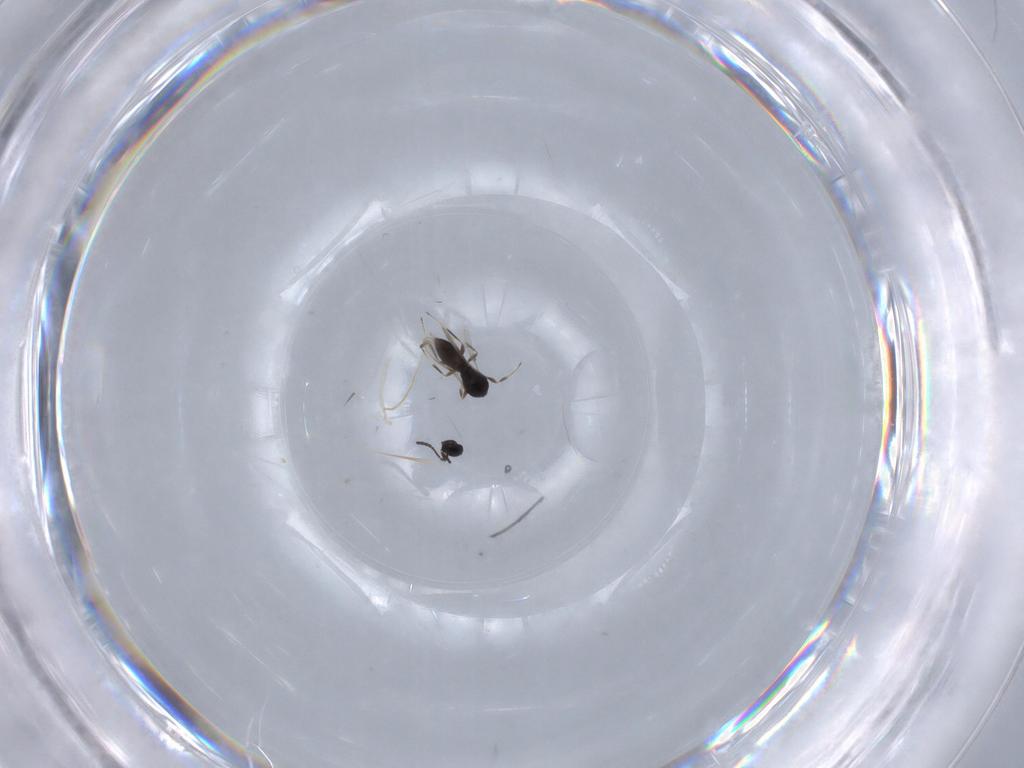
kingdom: Animalia
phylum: Arthropoda
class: Insecta
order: Hymenoptera
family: Scelionidae
